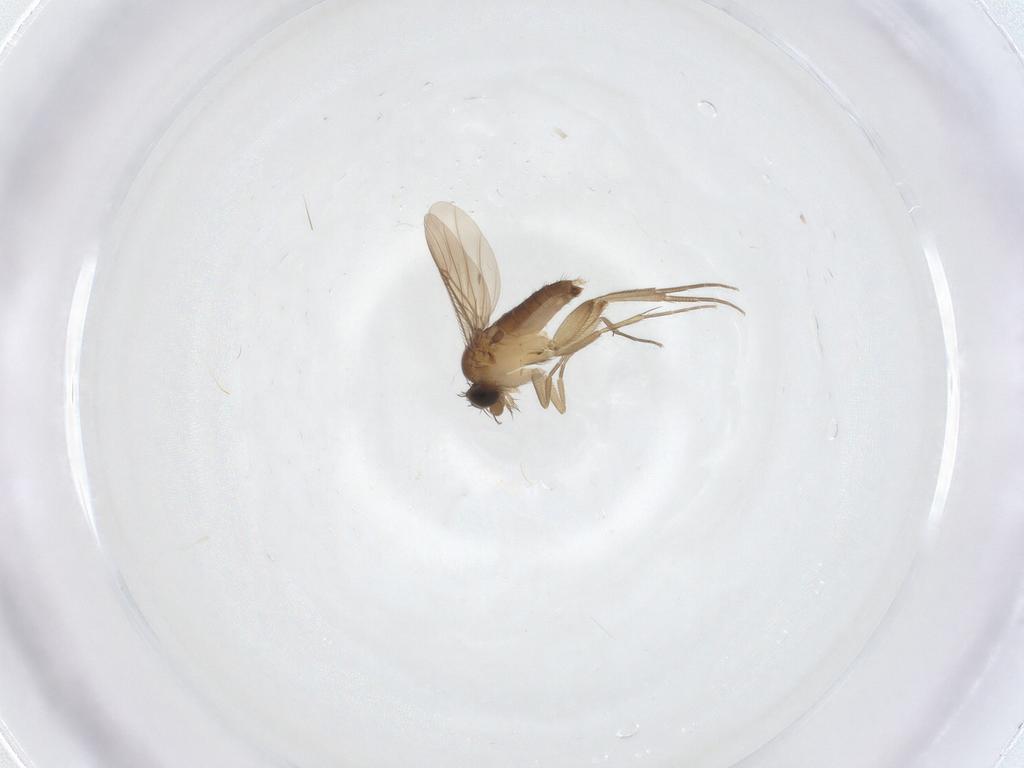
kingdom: Animalia
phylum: Arthropoda
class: Insecta
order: Diptera
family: Phoridae
